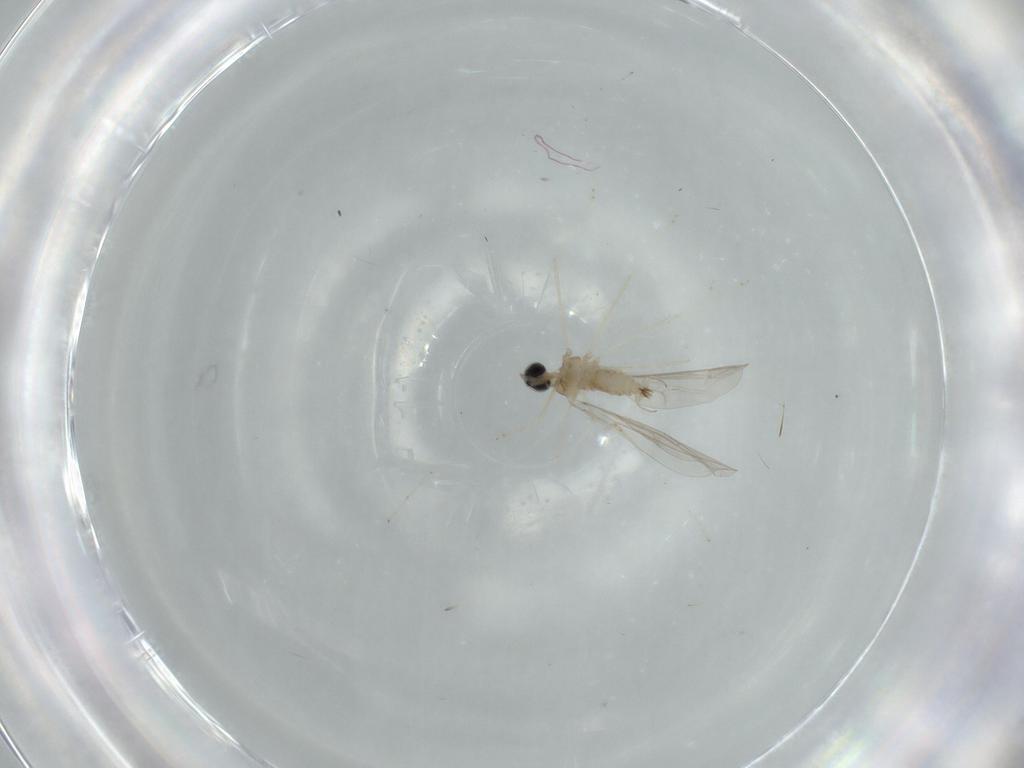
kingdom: Animalia
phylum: Arthropoda
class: Insecta
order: Diptera
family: Cecidomyiidae
